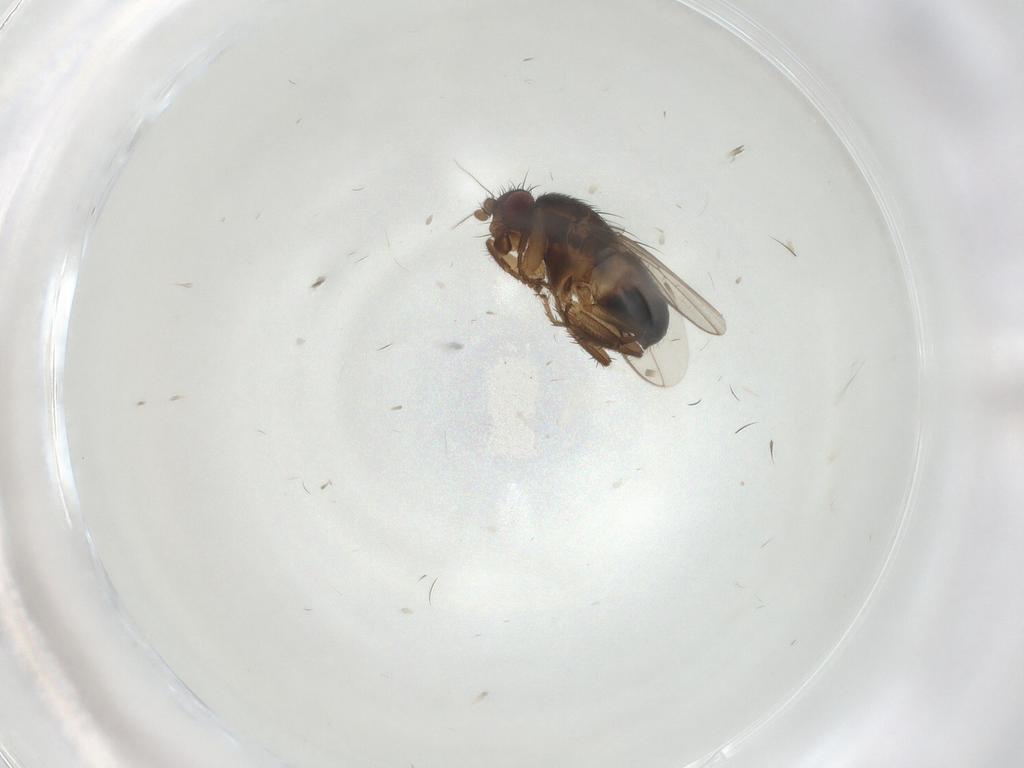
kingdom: Animalia
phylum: Arthropoda
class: Insecta
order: Diptera
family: Sphaeroceridae
